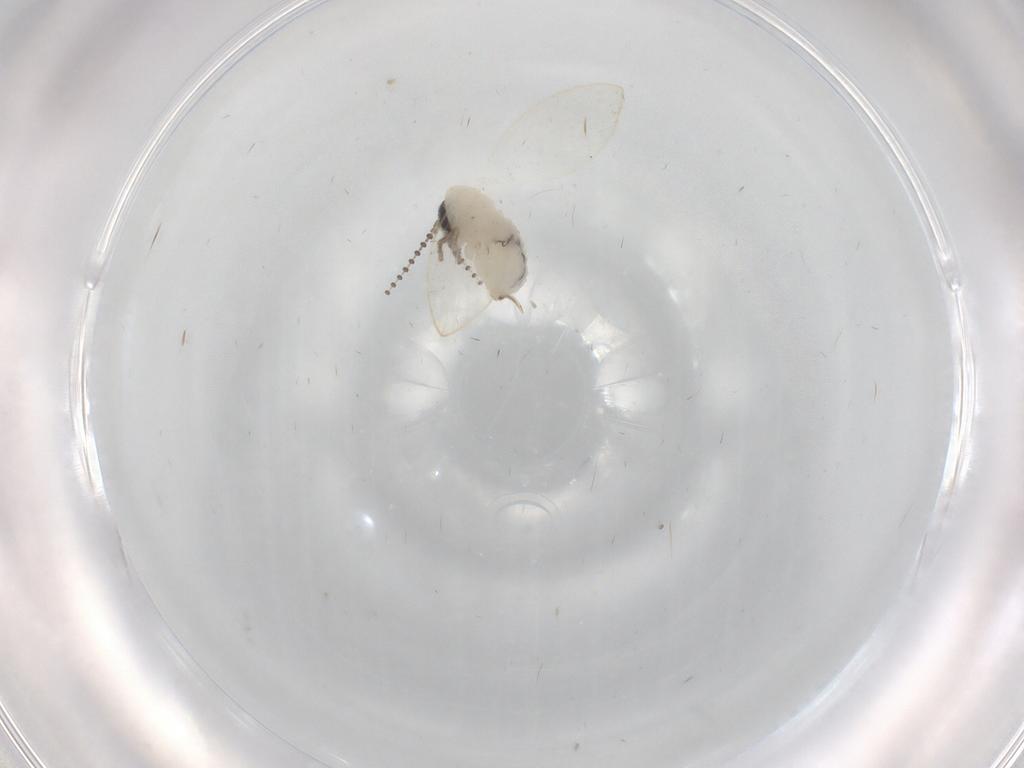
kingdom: Animalia
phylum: Arthropoda
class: Insecta
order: Diptera
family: Psychodidae
